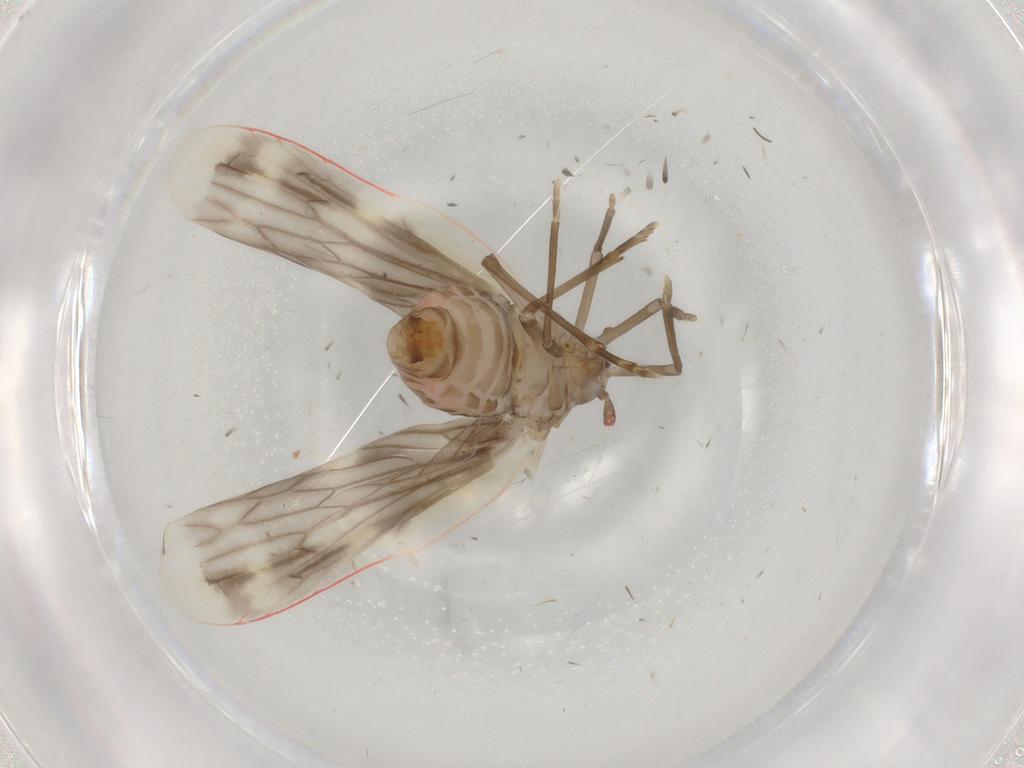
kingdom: Animalia
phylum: Arthropoda
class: Insecta
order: Hemiptera
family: Derbidae
